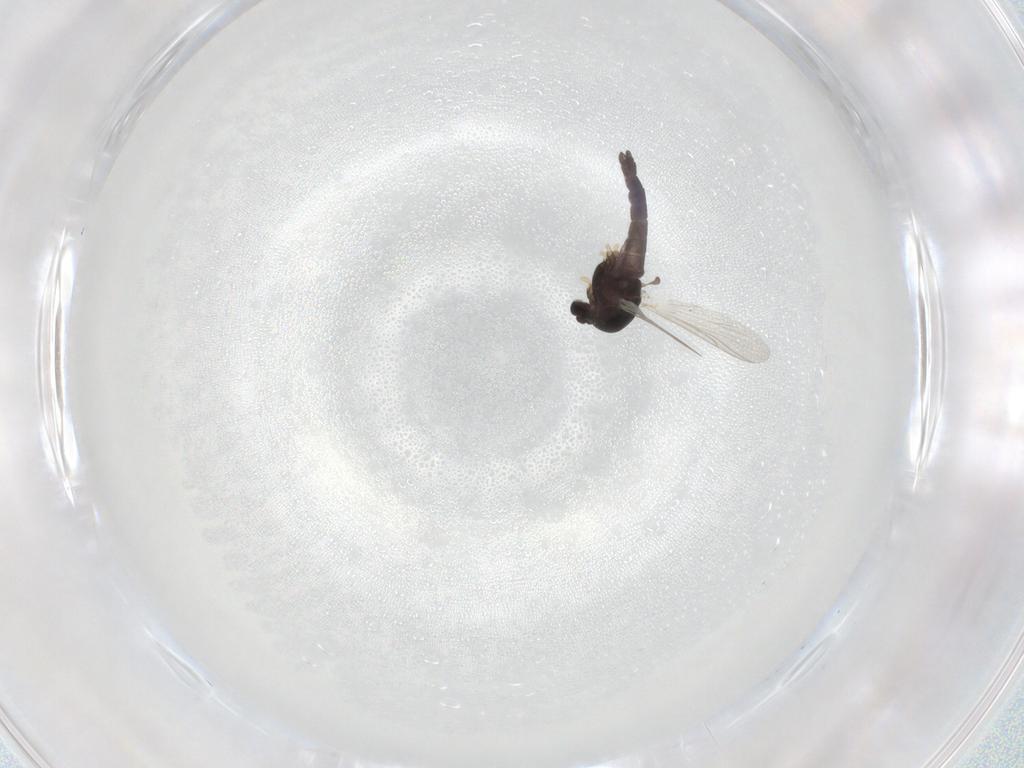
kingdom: Animalia
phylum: Arthropoda
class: Insecta
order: Diptera
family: Chironomidae
